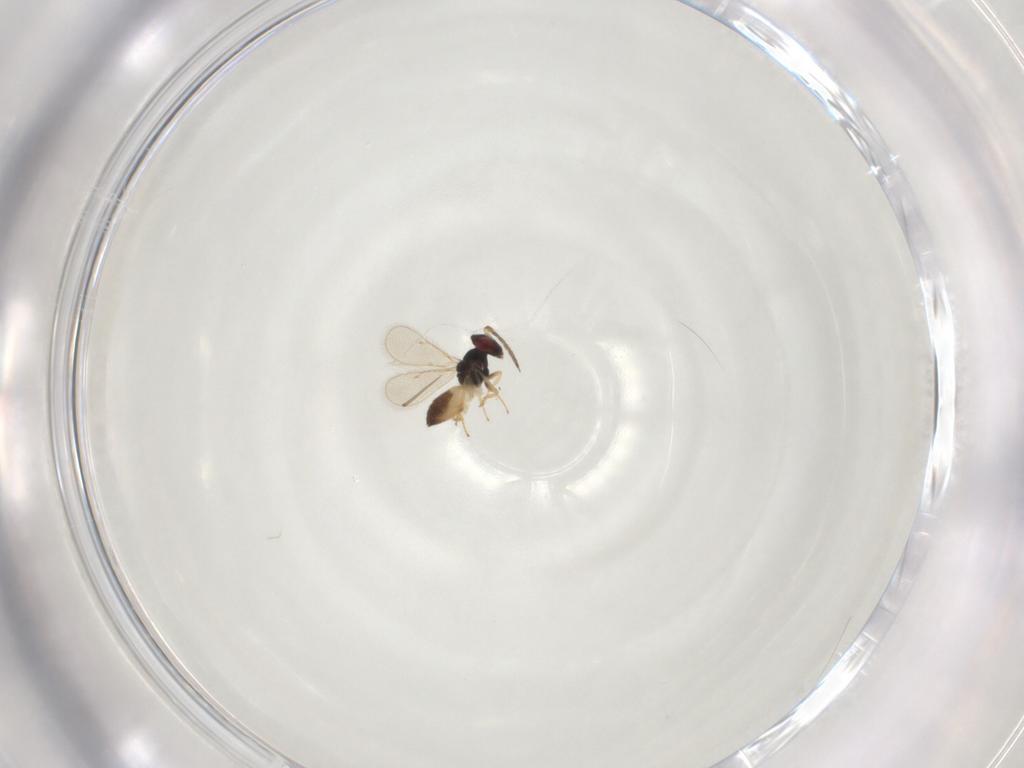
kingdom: Animalia
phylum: Arthropoda
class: Insecta
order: Hymenoptera
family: Eulophidae
